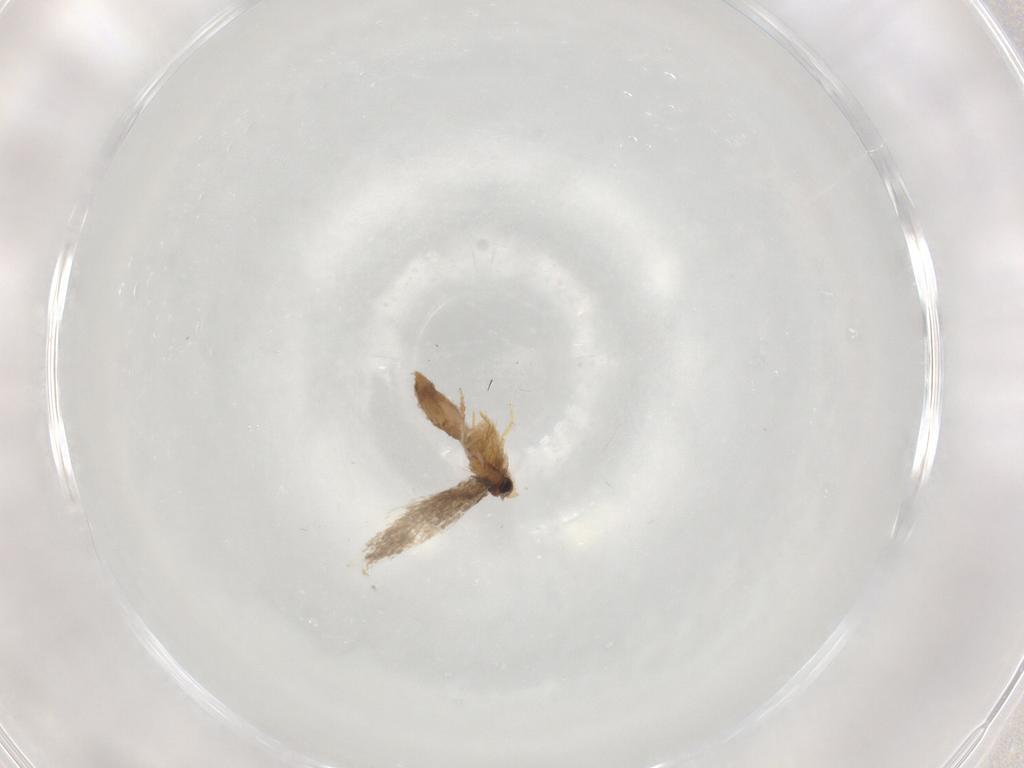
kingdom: Animalia
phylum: Arthropoda
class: Insecta
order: Lepidoptera
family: Nepticulidae
